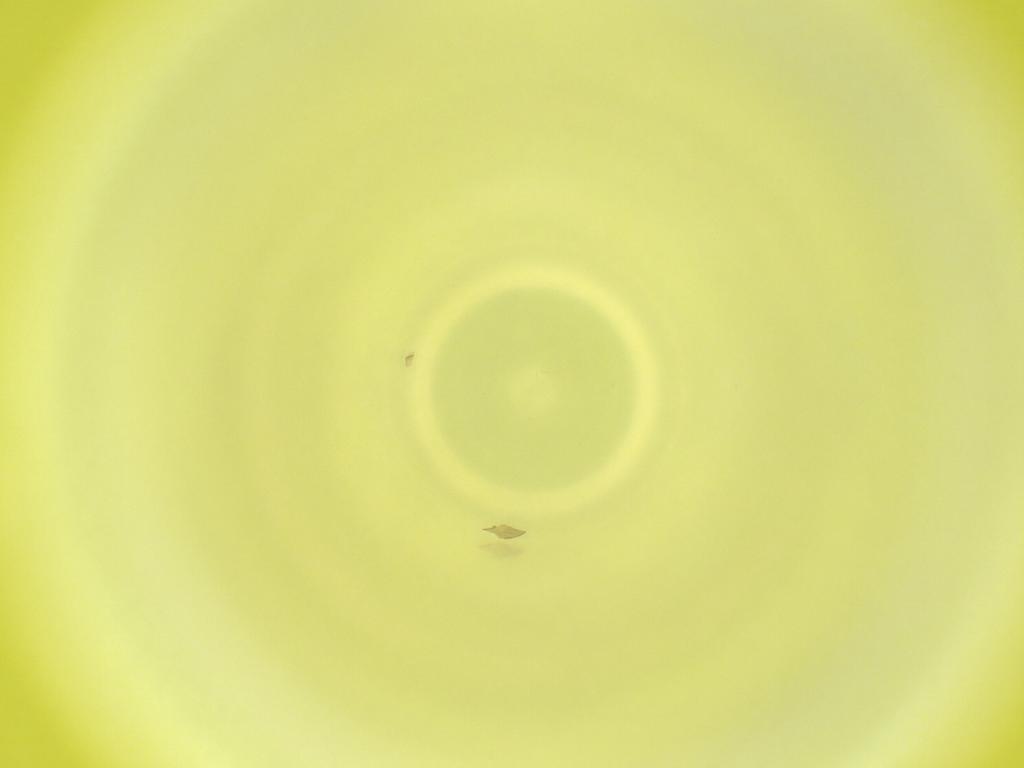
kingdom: Animalia
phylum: Arthropoda
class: Insecta
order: Diptera
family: Cecidomyiidae
